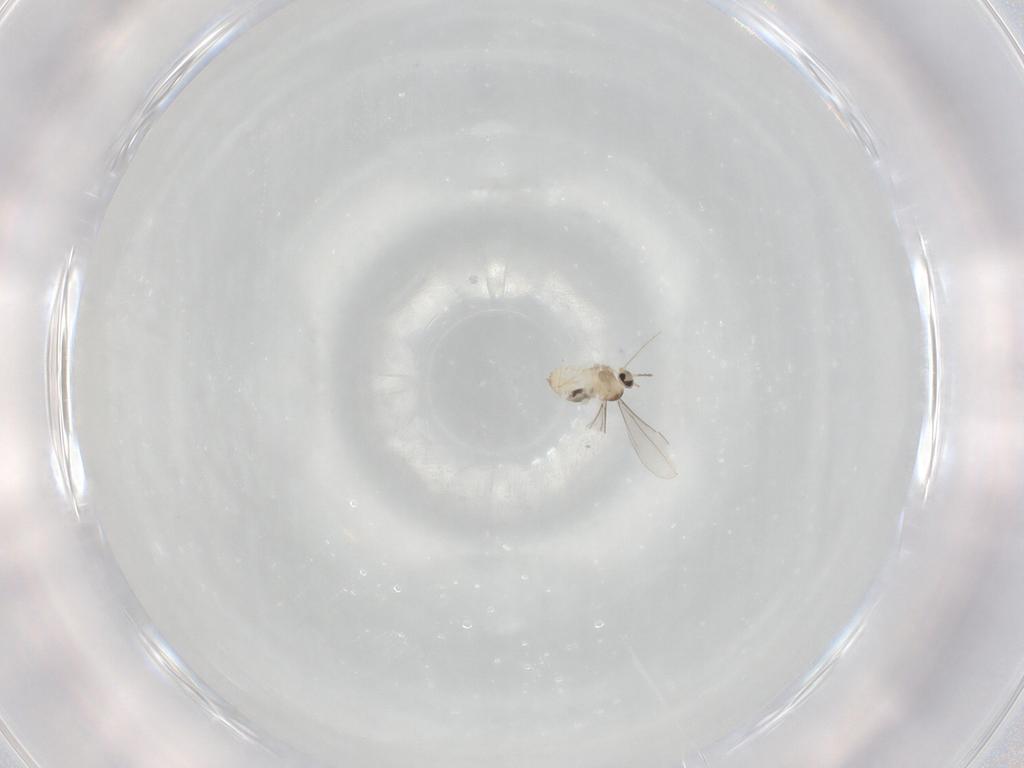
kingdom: Animalia
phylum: Arthropoda
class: Insecta
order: Diptera
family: Cecidomyiidae
